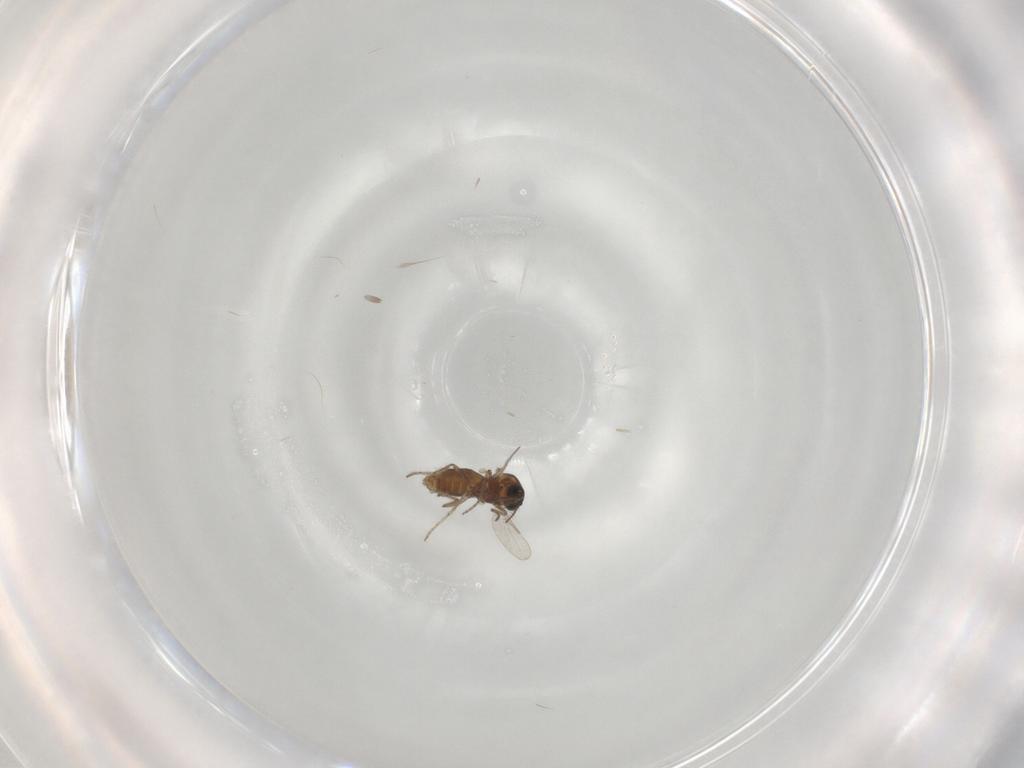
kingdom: Animalia
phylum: Arthropoda
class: Insecta
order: Diptera
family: Ceratopogonidae
